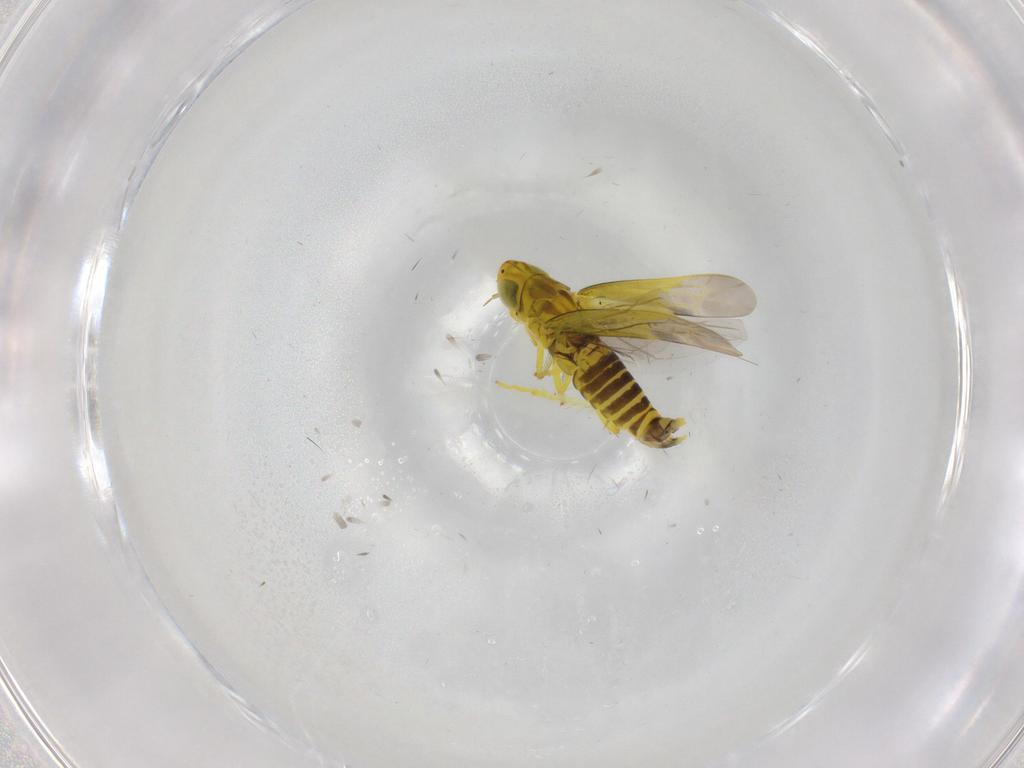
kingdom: Animalia
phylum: Arthropoda
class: Insecta
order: Hemiptera
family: Cicadellidae
